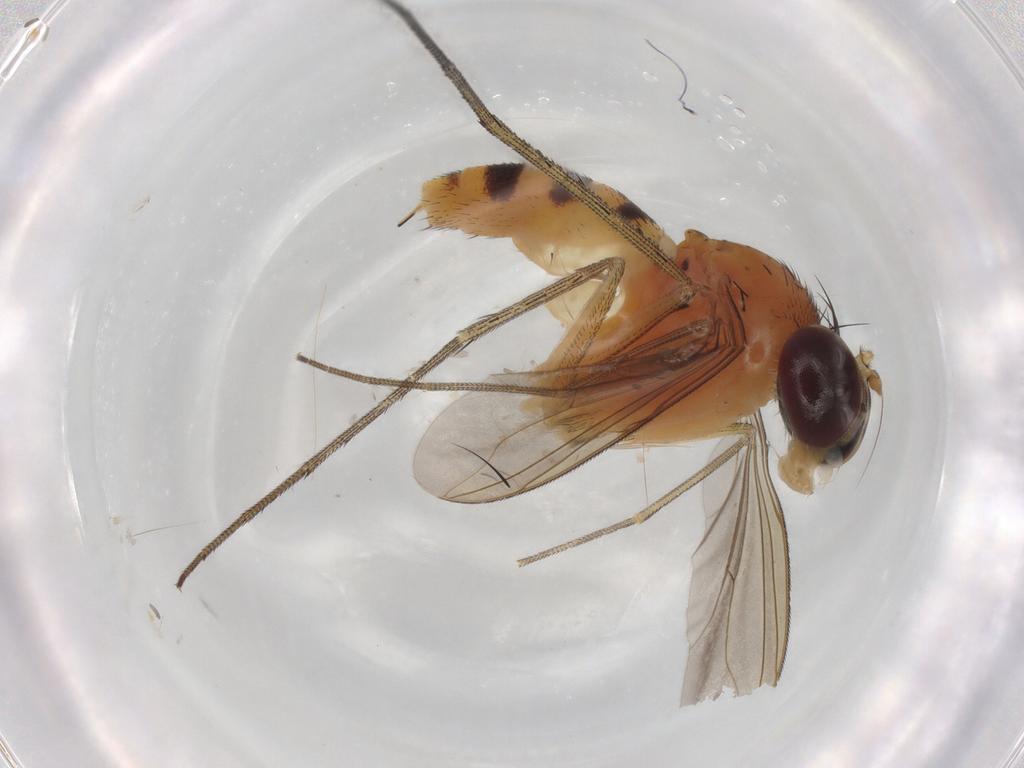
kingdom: Animalia
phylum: Arthropoda
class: Insecta
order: Diptera
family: Dolichopodidae
